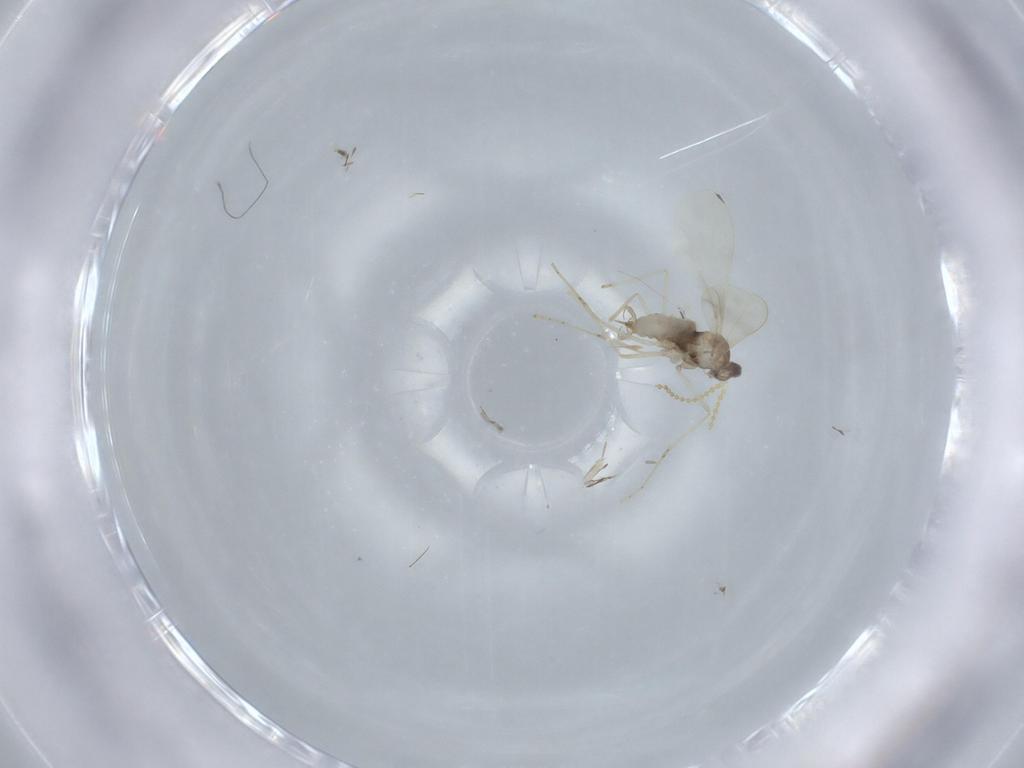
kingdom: Animalia
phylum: Arthropoda
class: Insecta
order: Diptera
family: Cecidomyiidae
